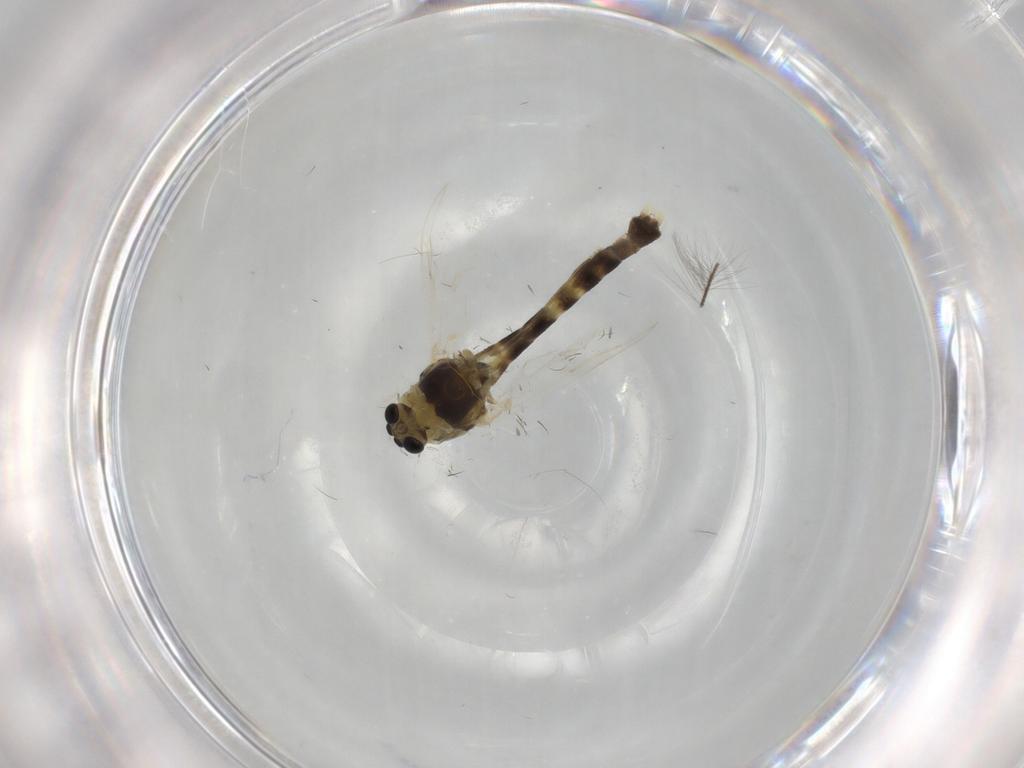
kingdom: Animalia
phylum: Arthropoda
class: Insecta
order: Diptera
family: Chironomidae
